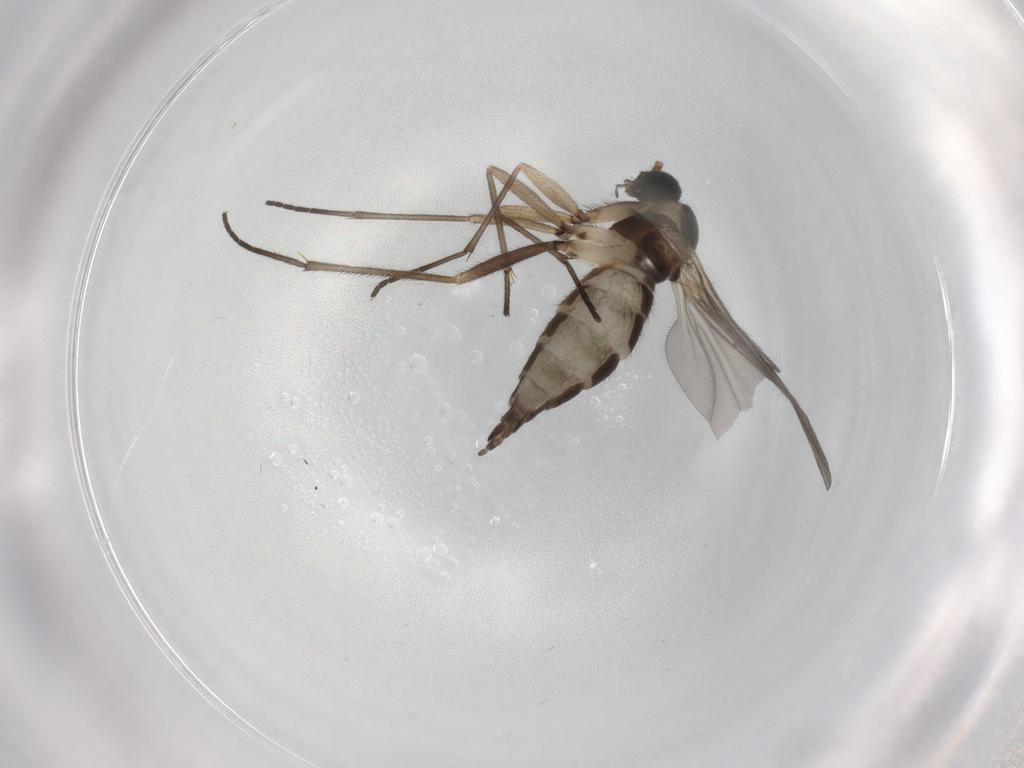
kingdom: Animalia
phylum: Arthropoda
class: Insecta
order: Diptera
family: Sciaridae
